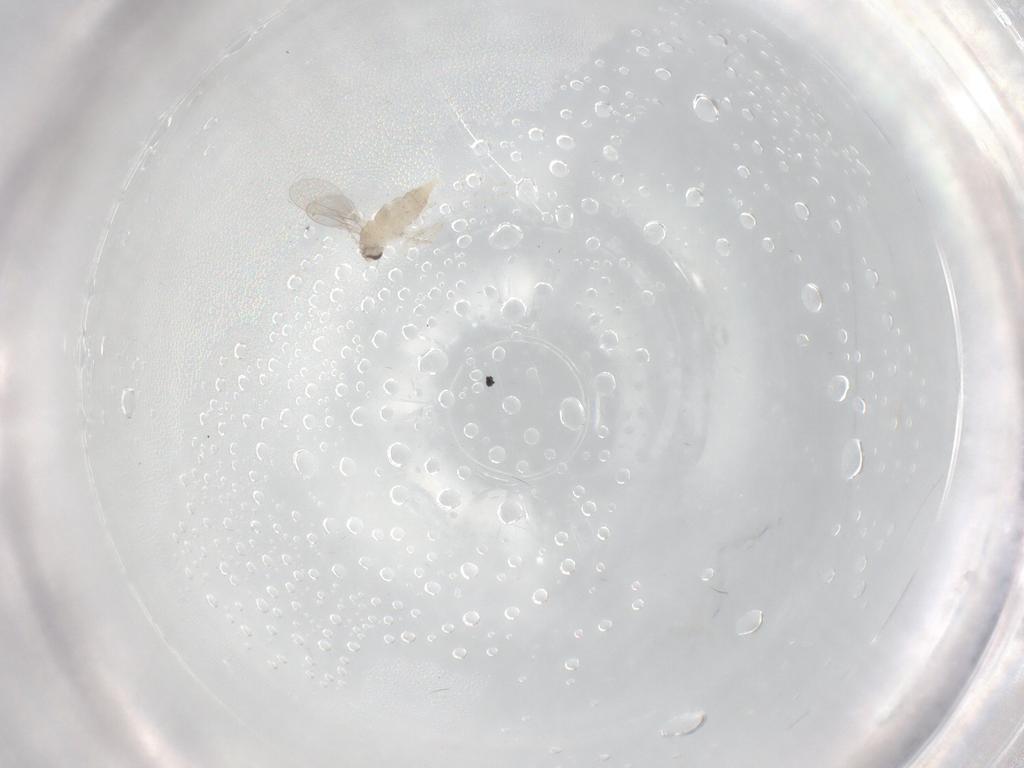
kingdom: Animalia
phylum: Arthropoda
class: Insecta
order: Diptera
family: Cecidomyiidae
